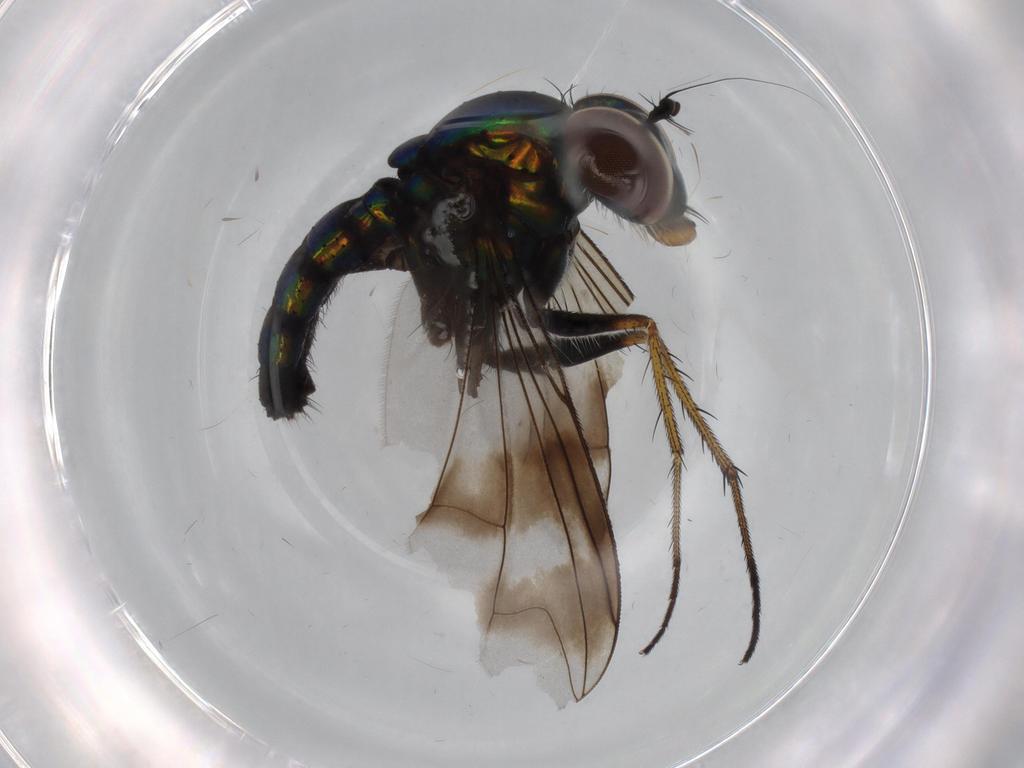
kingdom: Animalia
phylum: Arthropoda
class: Insecta
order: Diptera
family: Dolichopodidae
